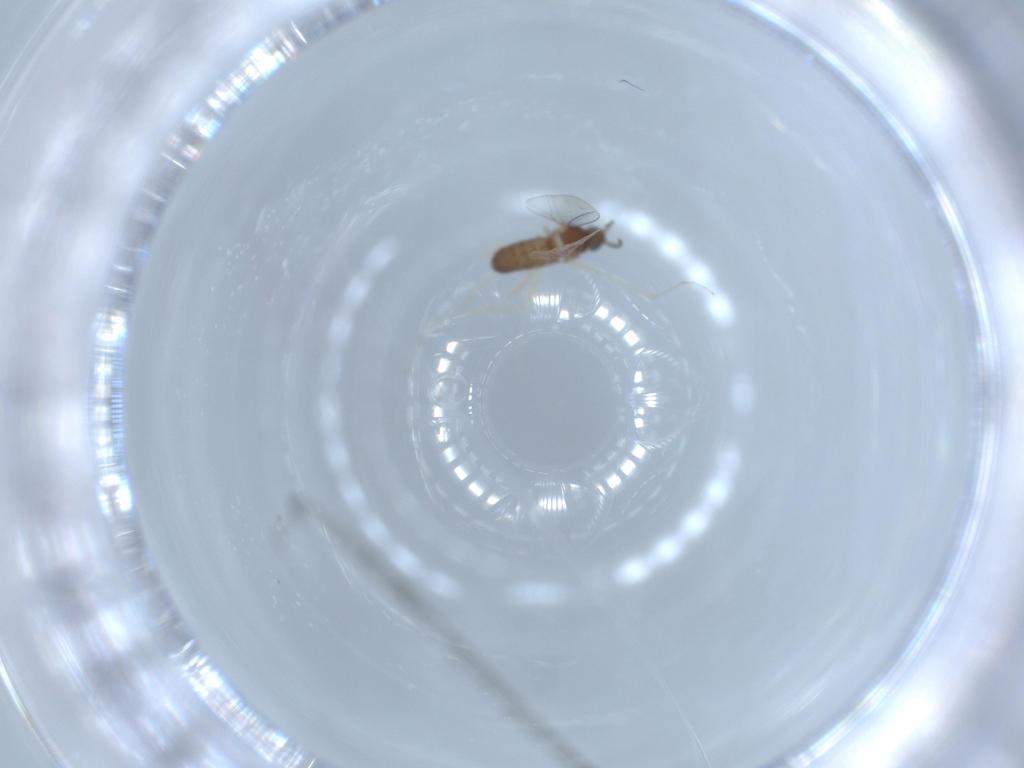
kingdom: Animalia
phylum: Arthropoda
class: Insecta
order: Diptera
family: Cecidomyiidae
